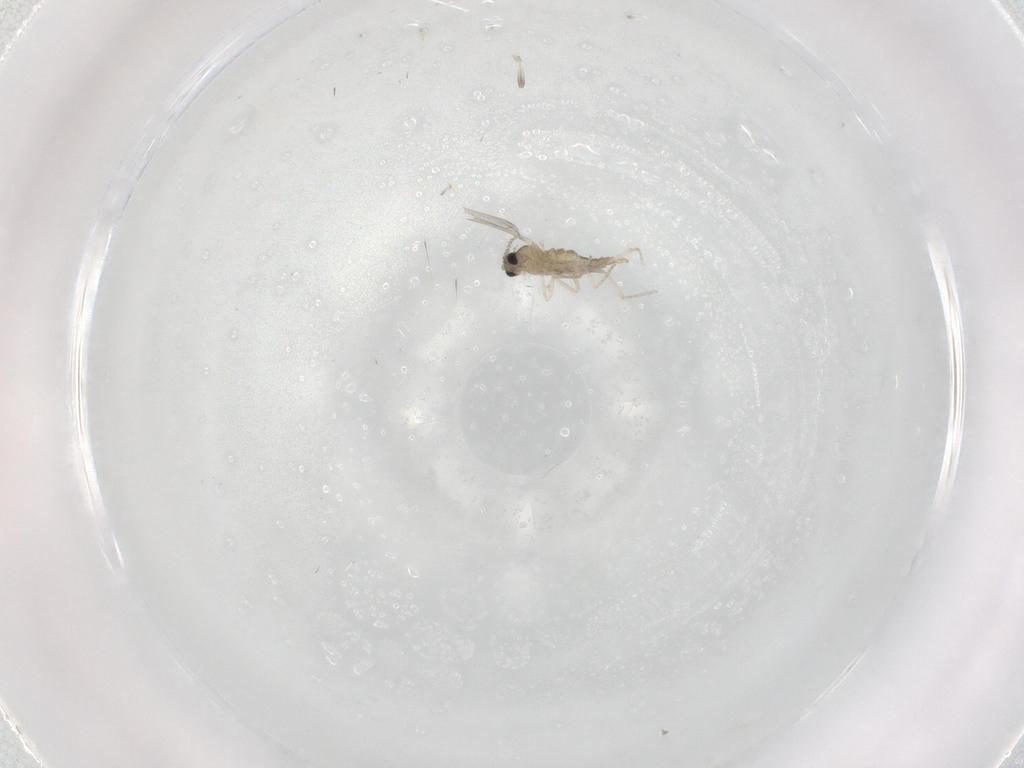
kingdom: Animalia
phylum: Arthropoda
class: Insecta
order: Diptera
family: Cecidomyiidae
